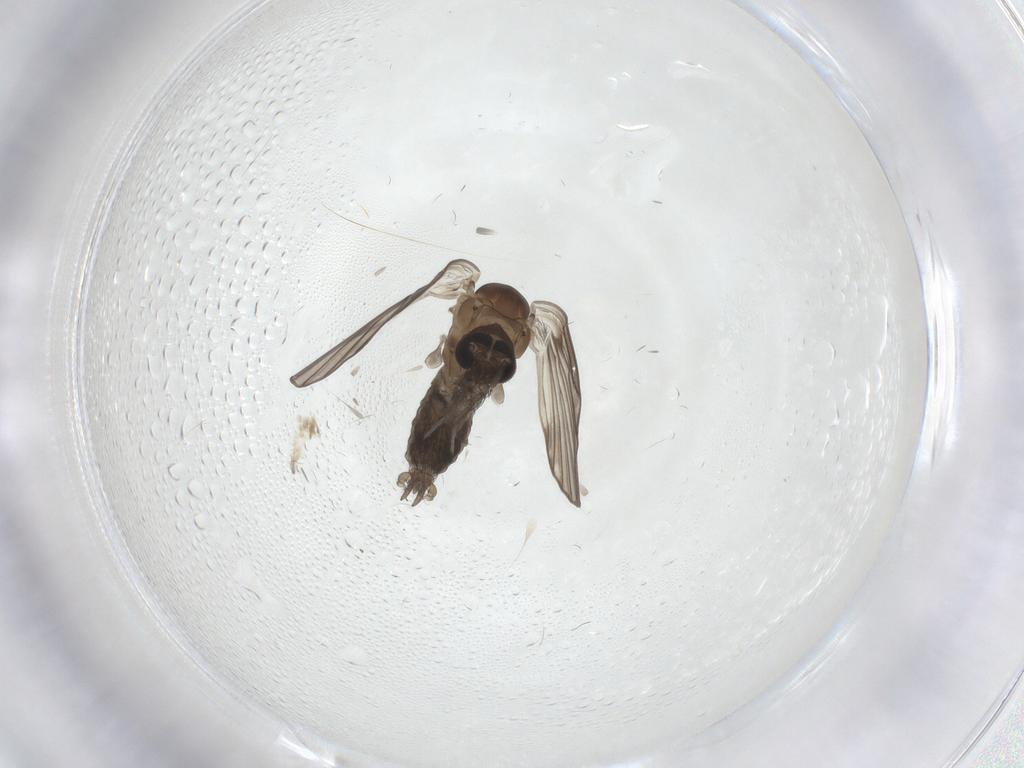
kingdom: Animalia
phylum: Arthropoda
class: Insecta
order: Diptera
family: Psychodidae
